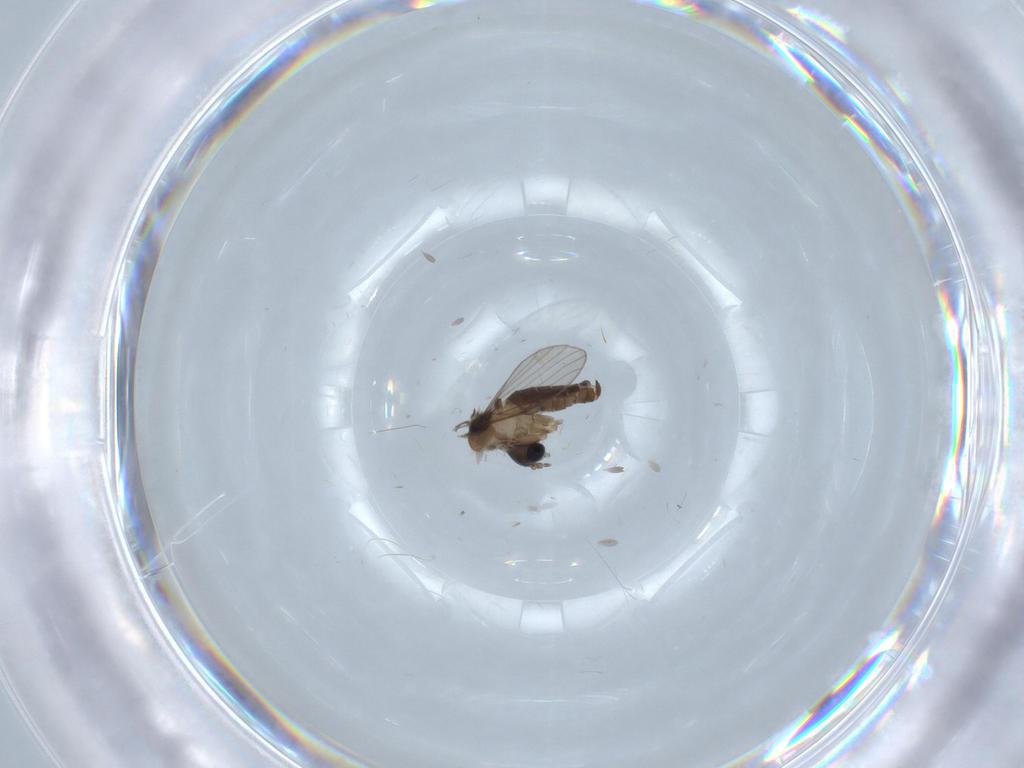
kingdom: Animalia
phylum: Arthropoda
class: Insecta
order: Diptera
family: Psychodidae
